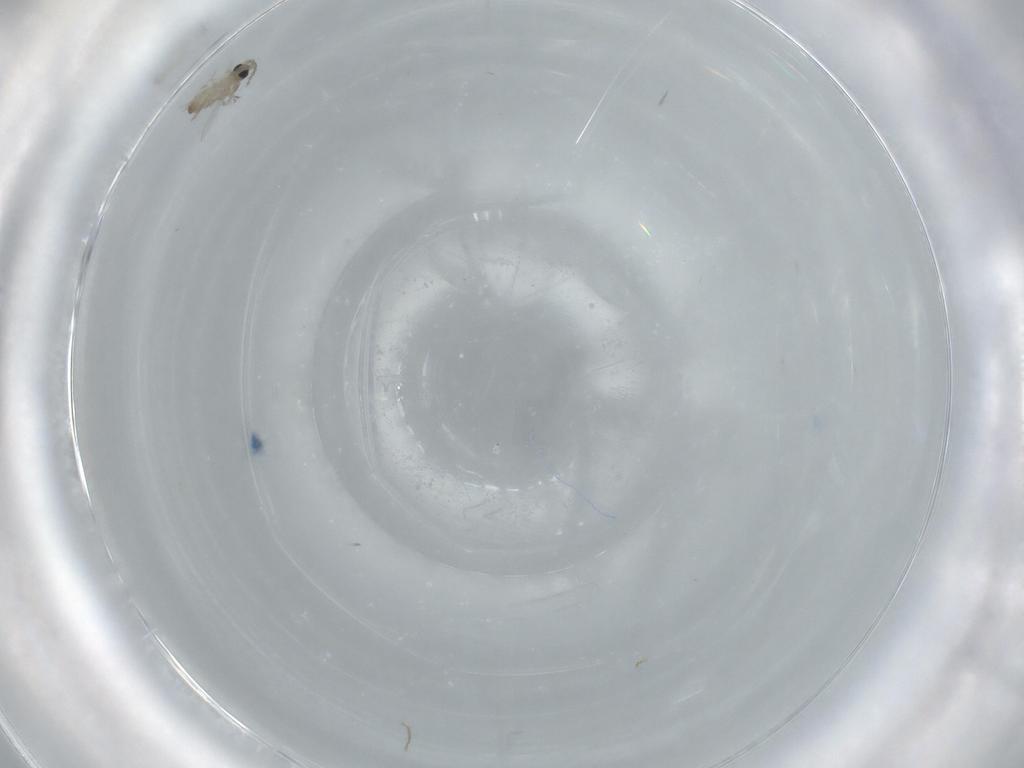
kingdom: Animalia
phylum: Arthropoda
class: Insecta
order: Diptera
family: Cecidomyiidae
